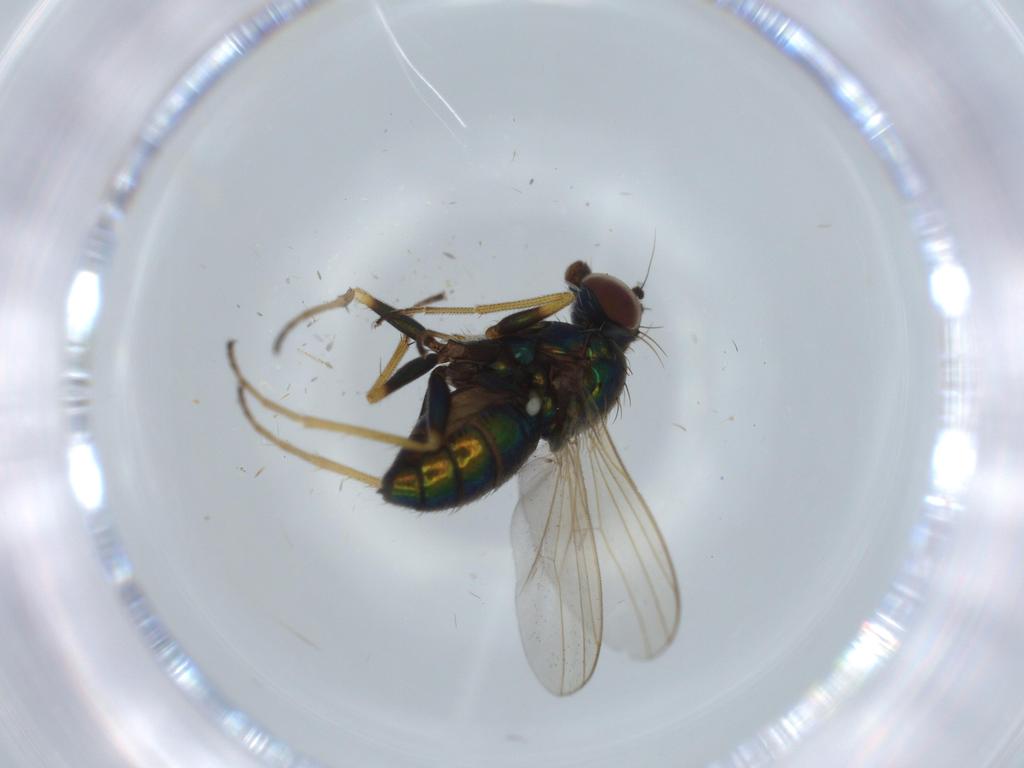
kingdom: Animalia
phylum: Arthropoda
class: Insecta
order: Diptera
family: Dolichopodidae
